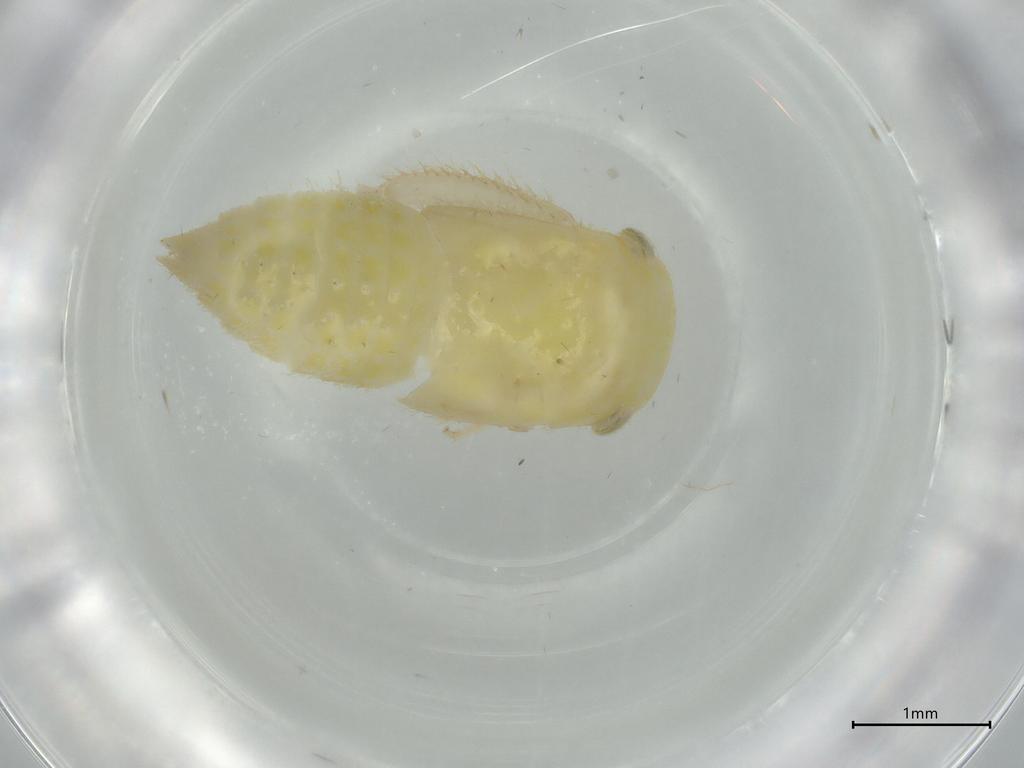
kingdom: Animalia
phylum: Arthropoda
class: Insecta
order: Hemiptera
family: Cicadellidae
